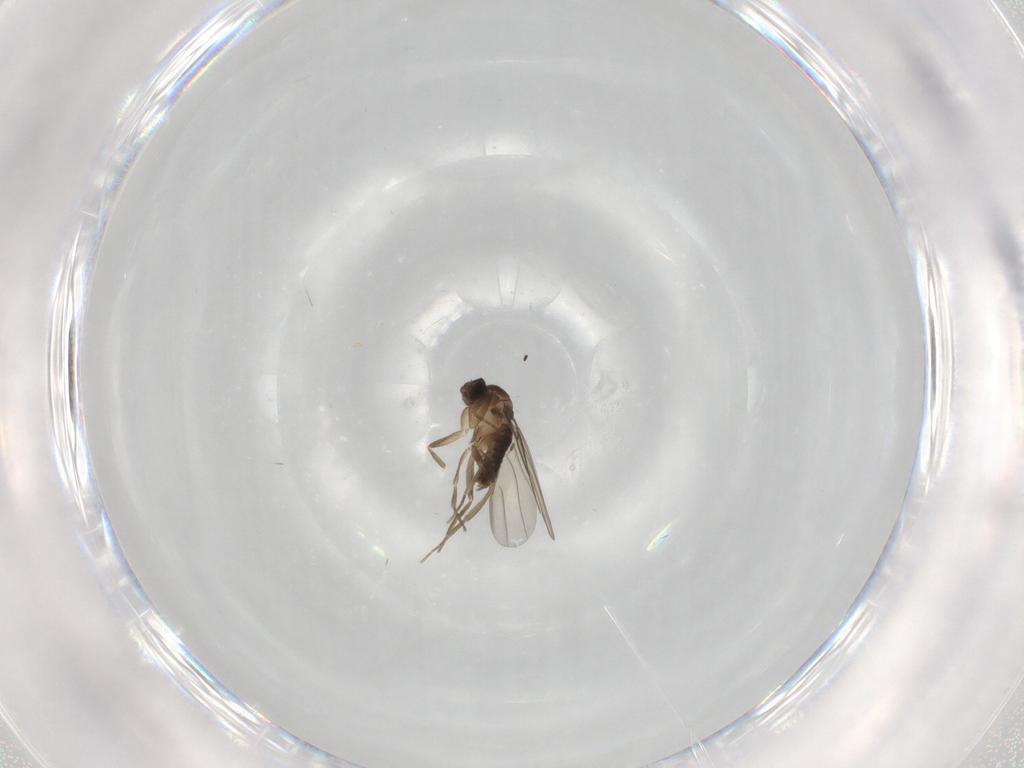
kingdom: Animalia
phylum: Arthropoda
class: Insecta
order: Diptera
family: Phoridae
